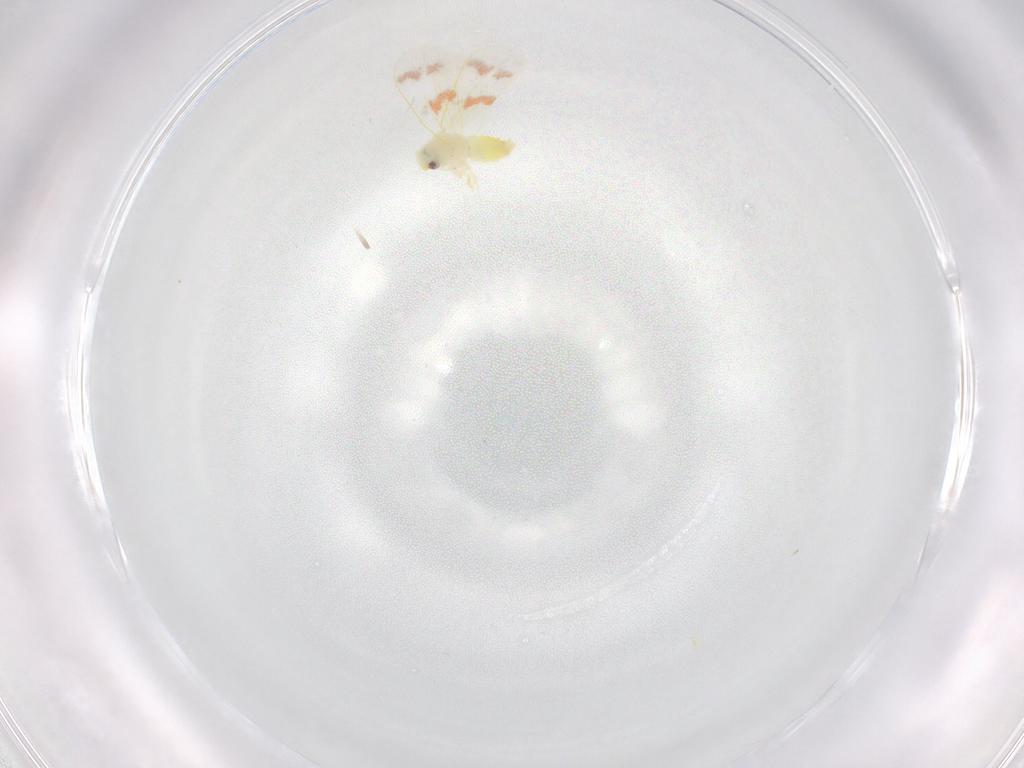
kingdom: Animalia
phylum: Arthropoda
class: Insecta
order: Hemiptera
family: Aleyrodidae
